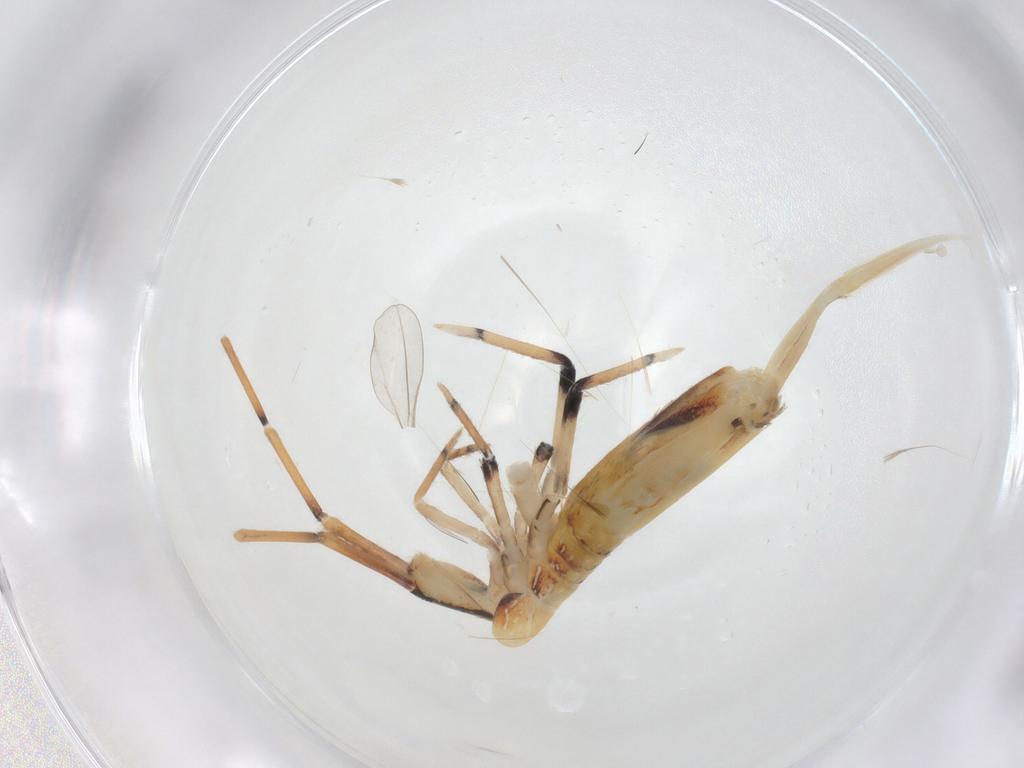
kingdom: Animalia
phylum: Arthropoda
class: Collembola
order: Entomobryomorpha
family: Entomobryidae
